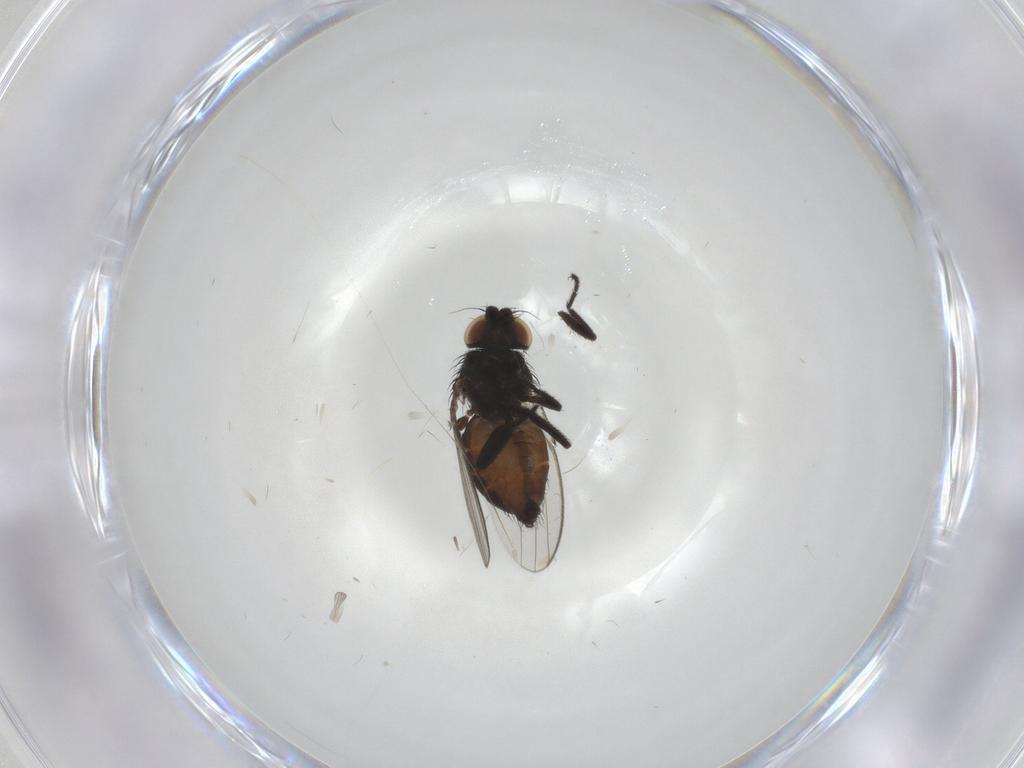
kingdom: Animalia
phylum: Arthropoda
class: Insecta
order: Diptera
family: Milichiidae
